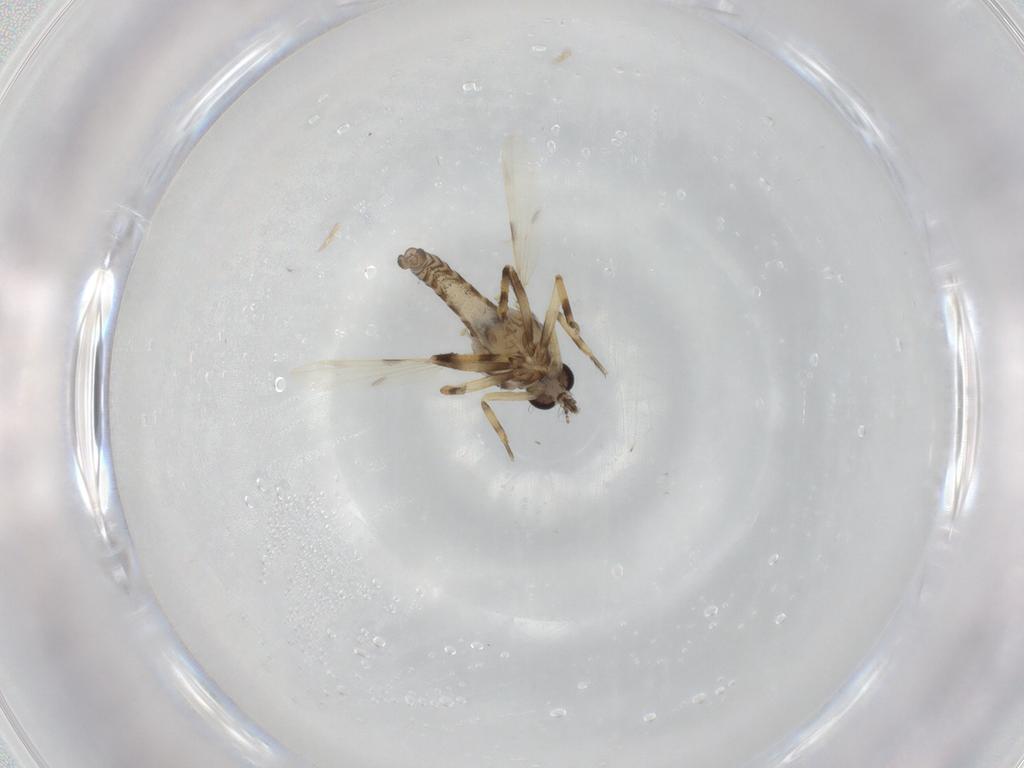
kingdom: Animalia
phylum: Arthropoda
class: Insecta
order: Diptera
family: Ceratopogonidae
